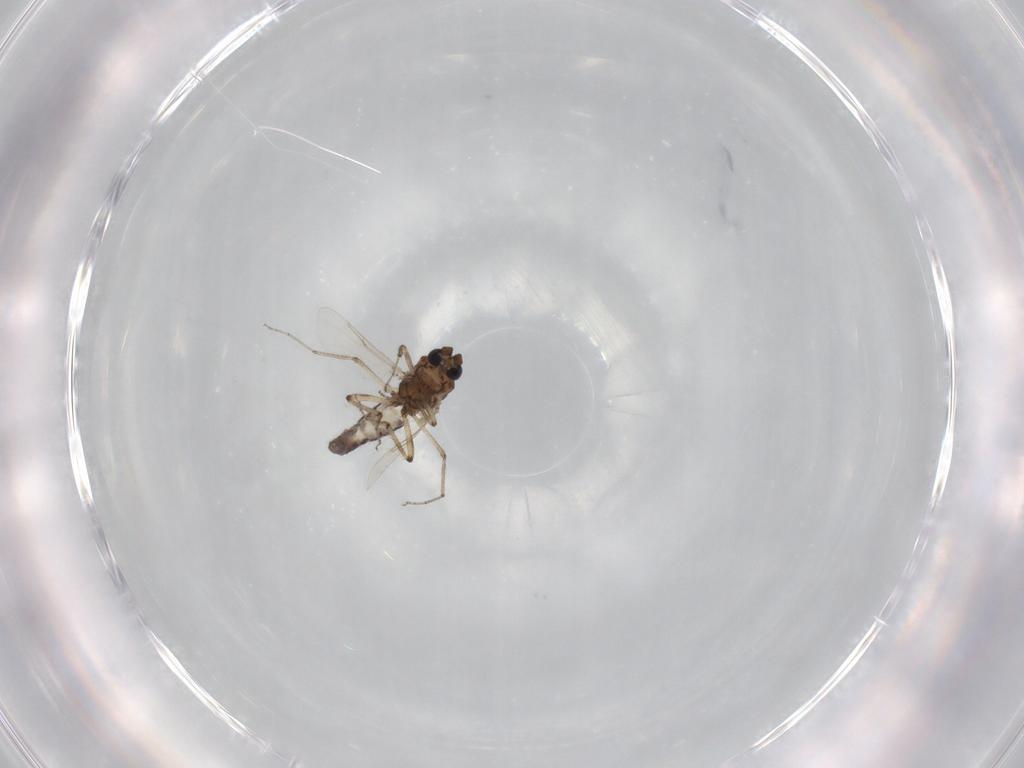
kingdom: Animalia
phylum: Arthropoda
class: Insecta
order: Diptera
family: Ceratopogonidae
